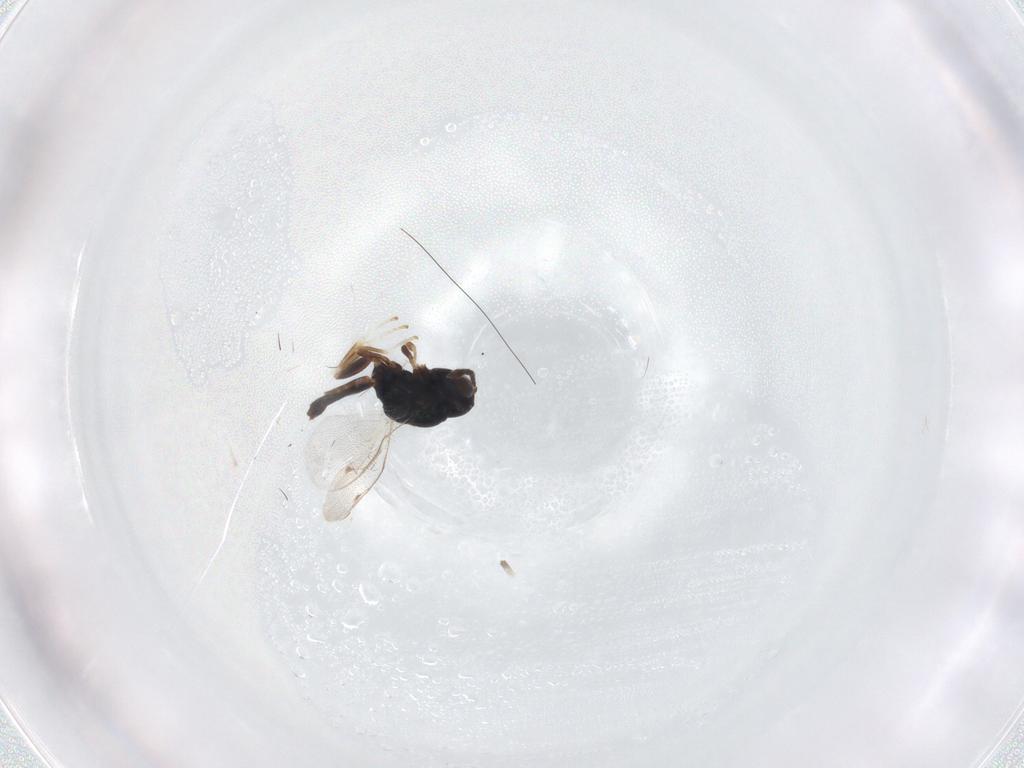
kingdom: Animalia
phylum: Arthropoda
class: Insecta
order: Hymenoptera
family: Pteromalidae
